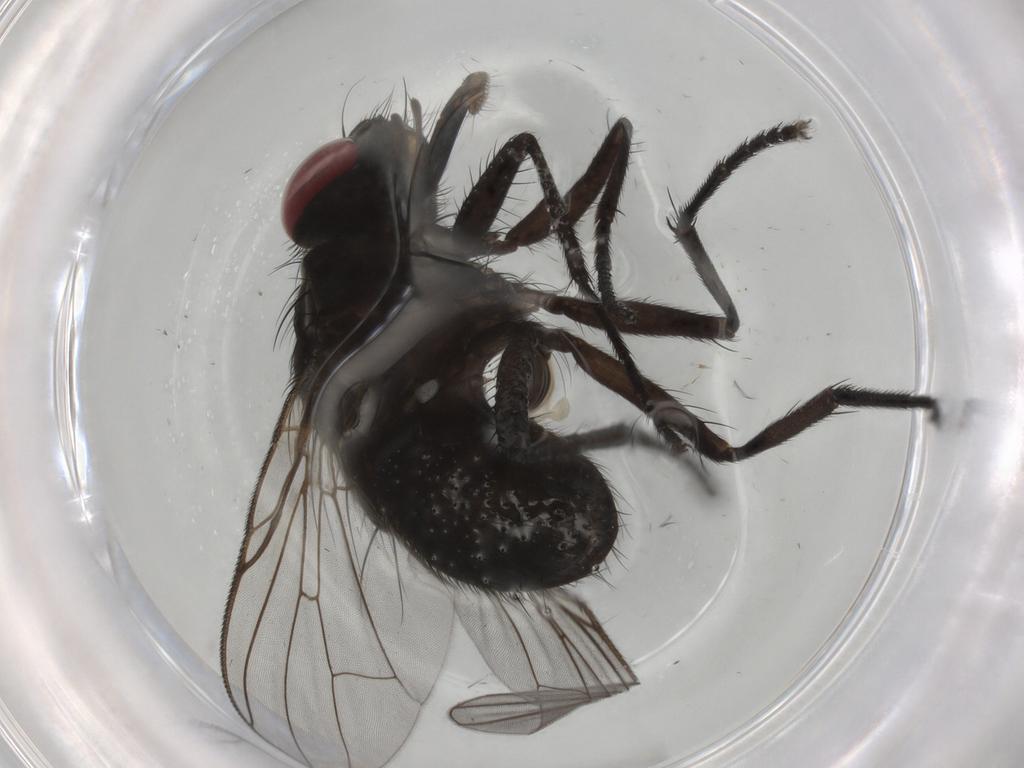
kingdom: Animalia
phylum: Arthropoda
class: Insecta
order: Diptera
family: Muscidae
